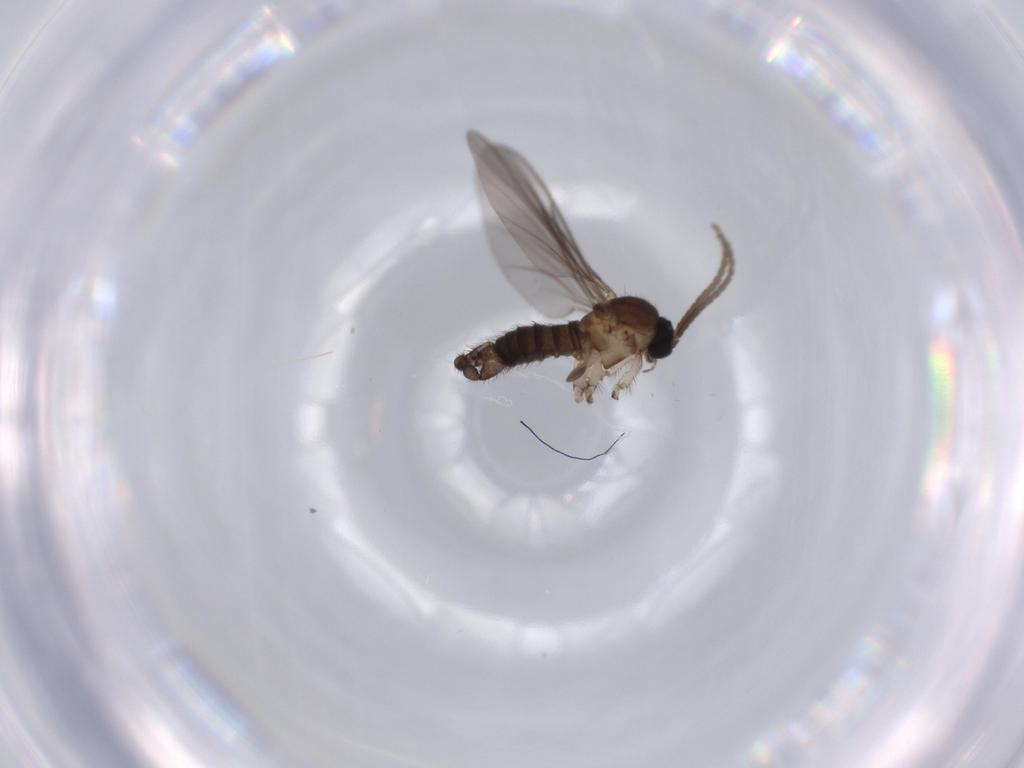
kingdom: Animalia
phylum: Arthropoda
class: Insecta
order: Diptera
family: Sciaridae
